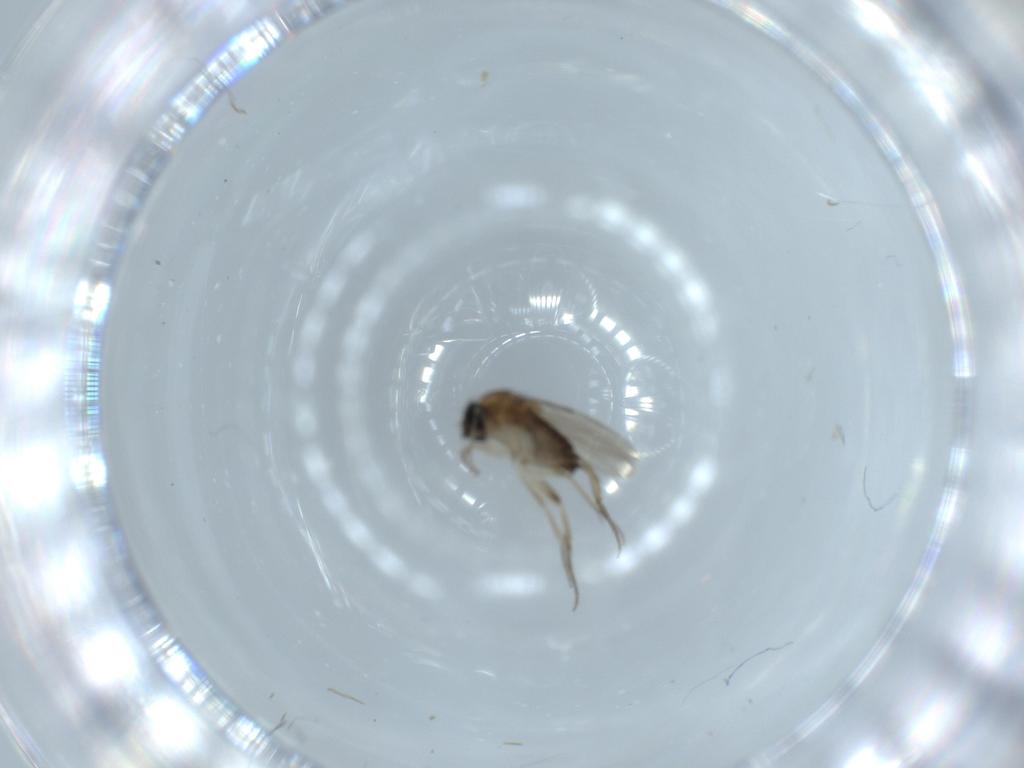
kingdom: Animalia
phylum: Arthropoda
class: Insecta
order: Diptera
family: Phoridae
